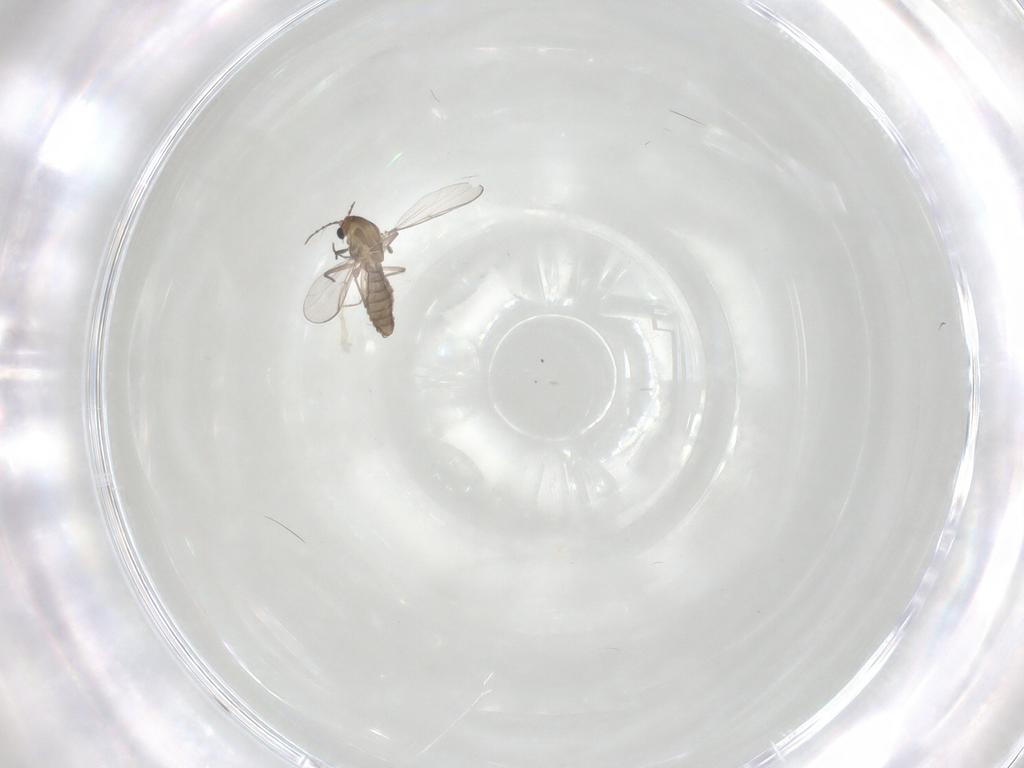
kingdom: Animalia
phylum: Arthropoda
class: Insecta
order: Diptera
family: Chironomidae
